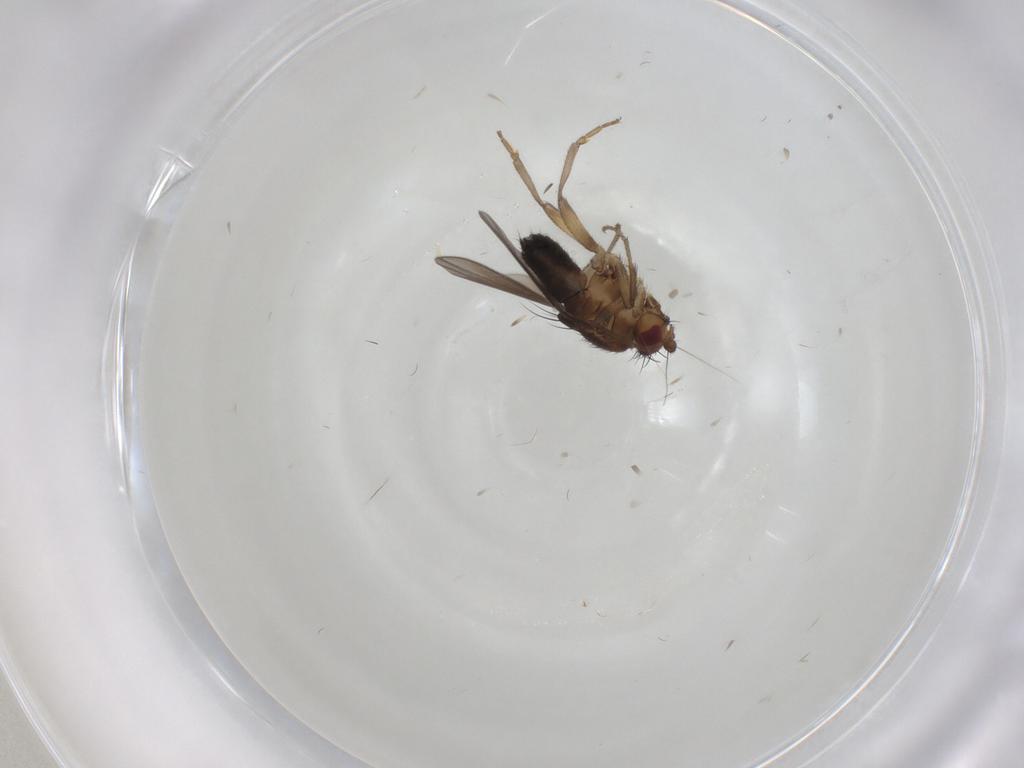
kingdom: Animalia
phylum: Arthropoda
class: Insecta
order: Diptera
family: Sphaeroceridae
